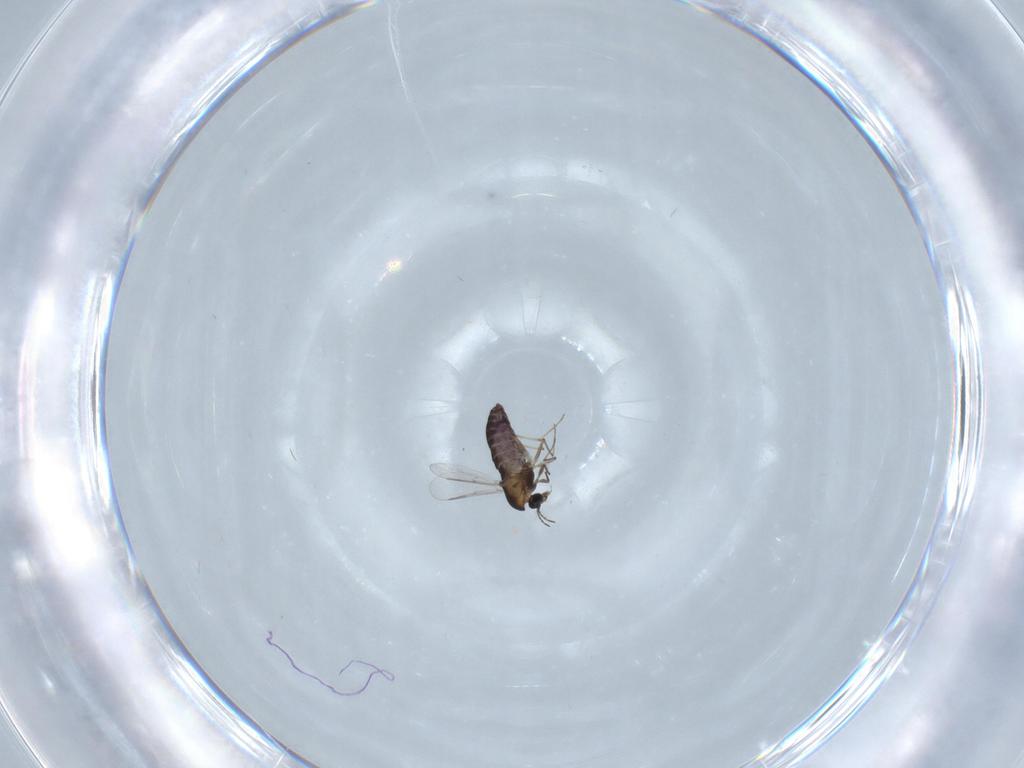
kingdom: Animalia
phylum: Arthropoda
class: Insecta
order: Diptera
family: Chironomidae
